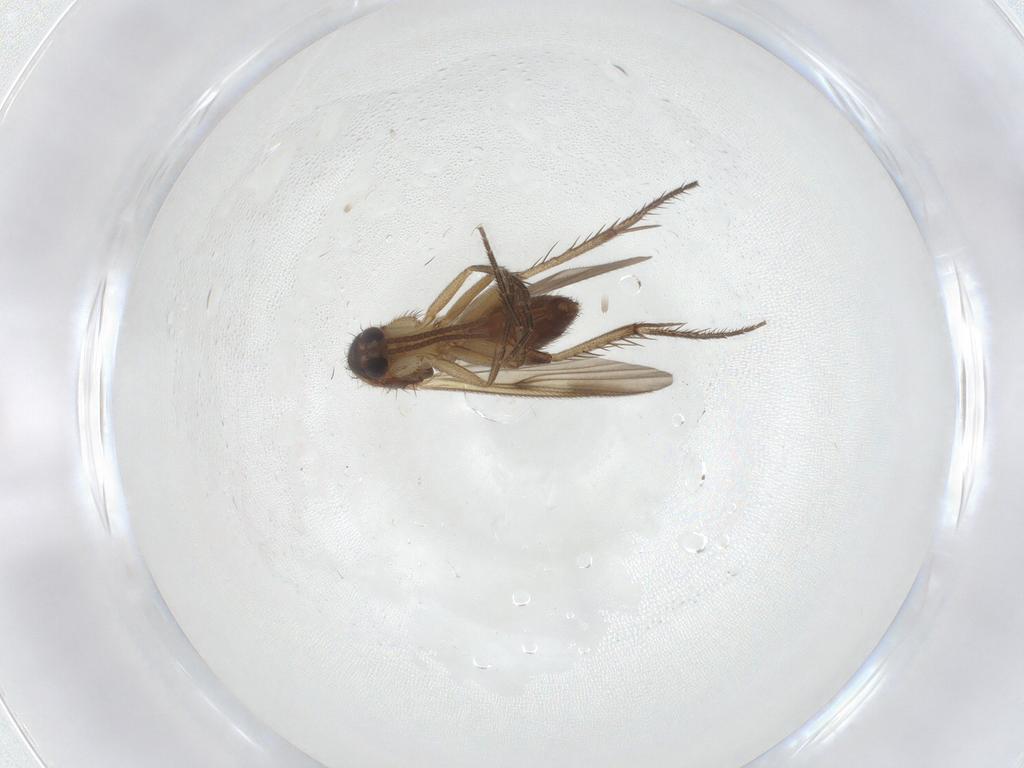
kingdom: Animalia
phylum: Arthropoda
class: Insecta
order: Diptera
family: Mycetophilidae
